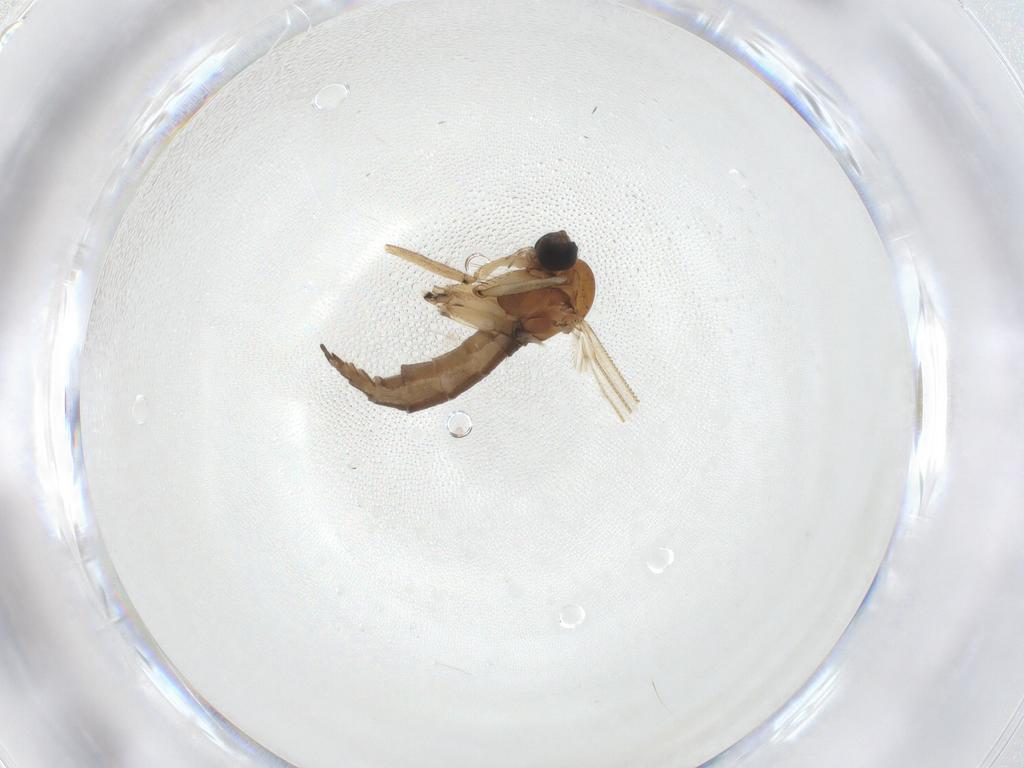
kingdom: Animalia
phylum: Arthropoda
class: Insecta
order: Diptera
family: Sciaridae
